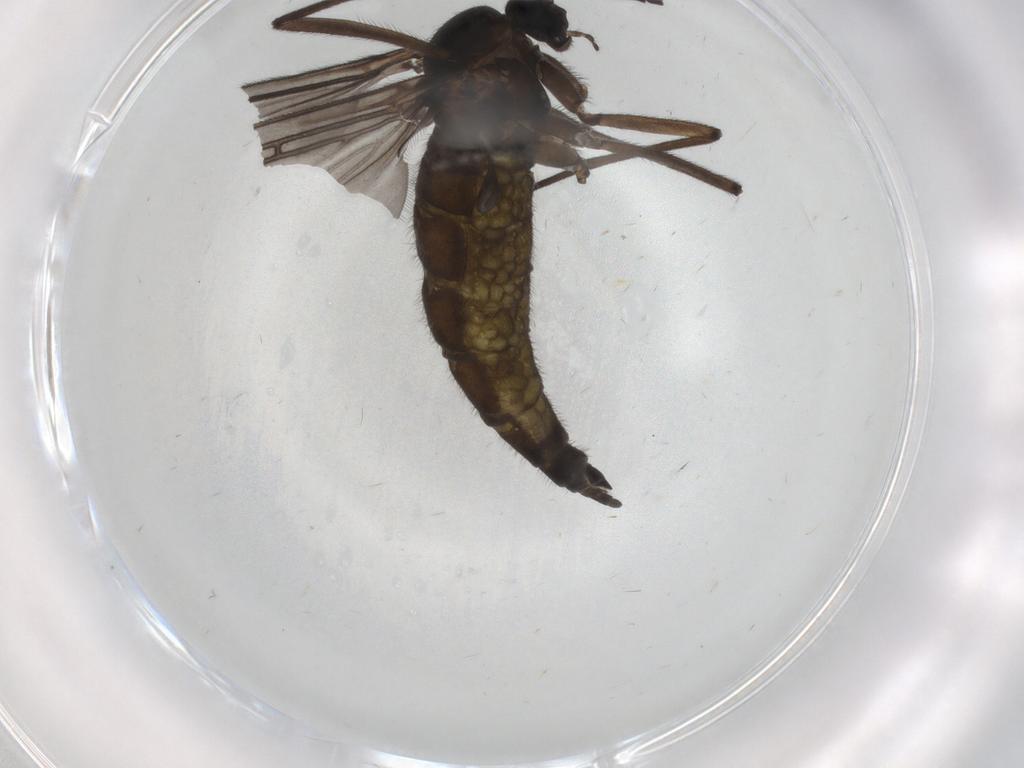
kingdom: Animalia
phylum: Arthropoda
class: Insecta
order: Diptera
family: Sciaridae
